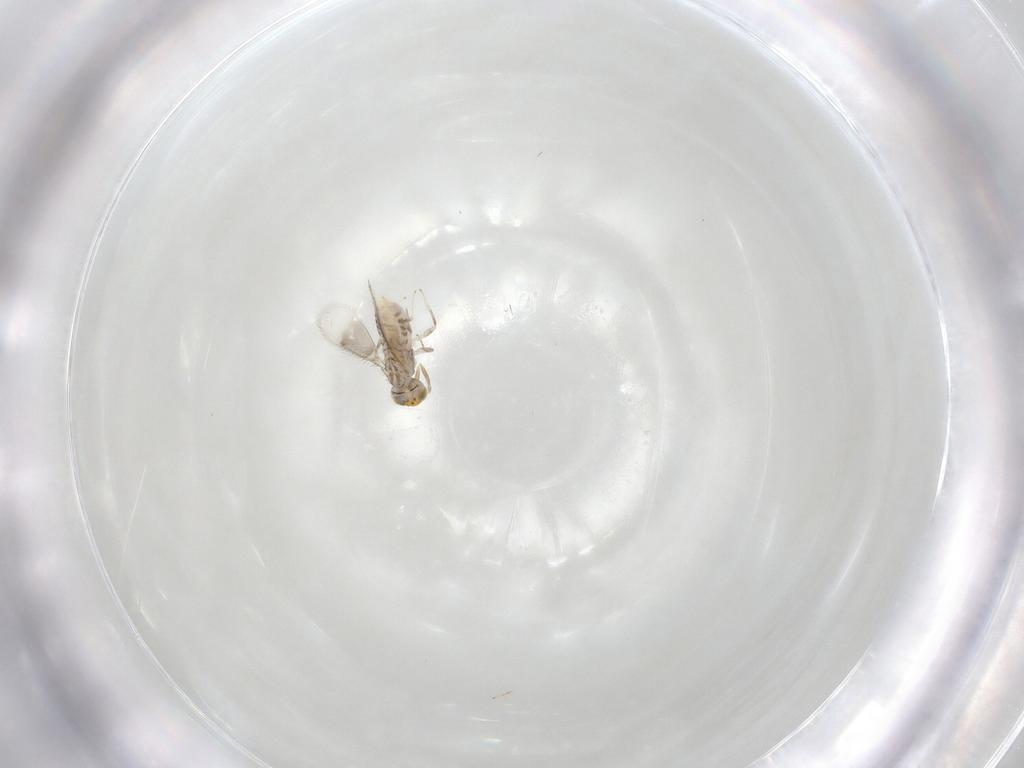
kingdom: Animalia
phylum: Arthropoda
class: Insecta
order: Hymenoptera
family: Aphelinidae
